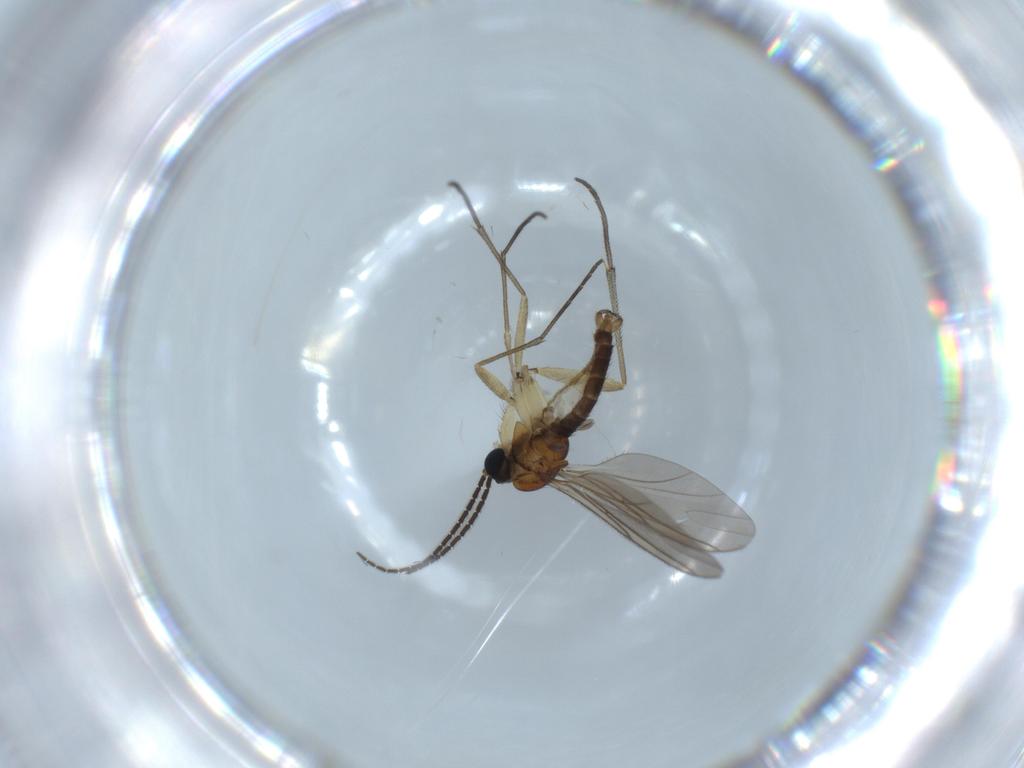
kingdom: Animalia
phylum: Arthropoda
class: Insecta
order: Diptera
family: Sciaridae
